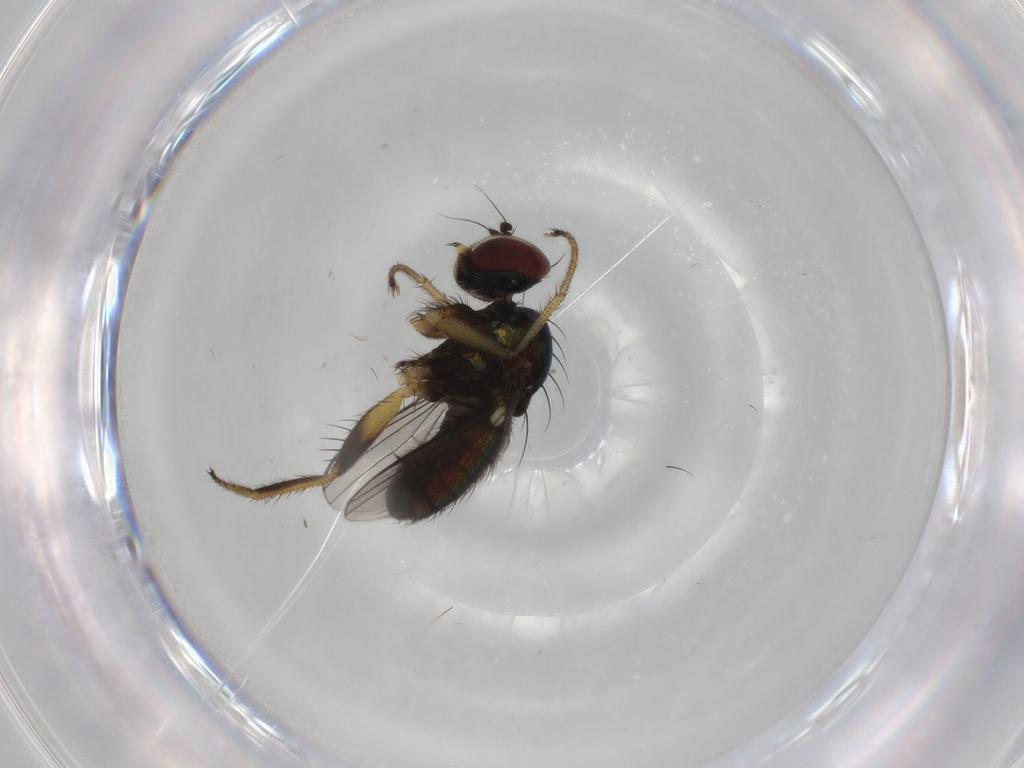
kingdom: Animalia
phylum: Arthropoda
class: Insecta
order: Diptera
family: Dolichopodidae
